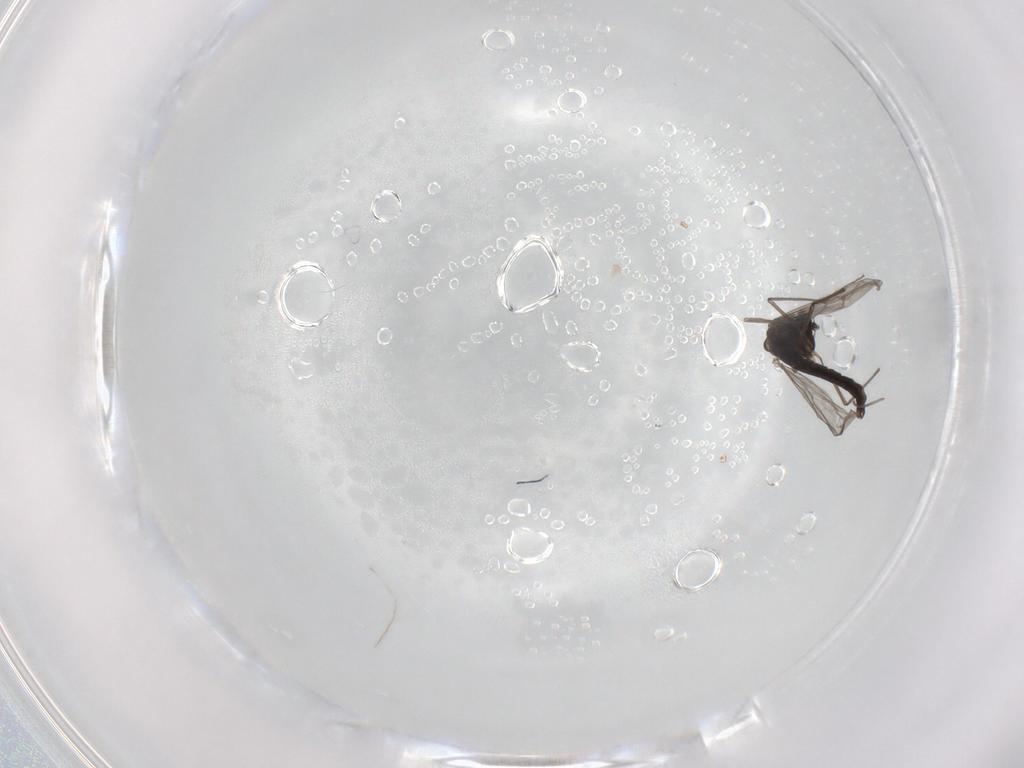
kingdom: Animalia
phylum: Arthropoda
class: Insecta
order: Diptera
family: Chironomidae
